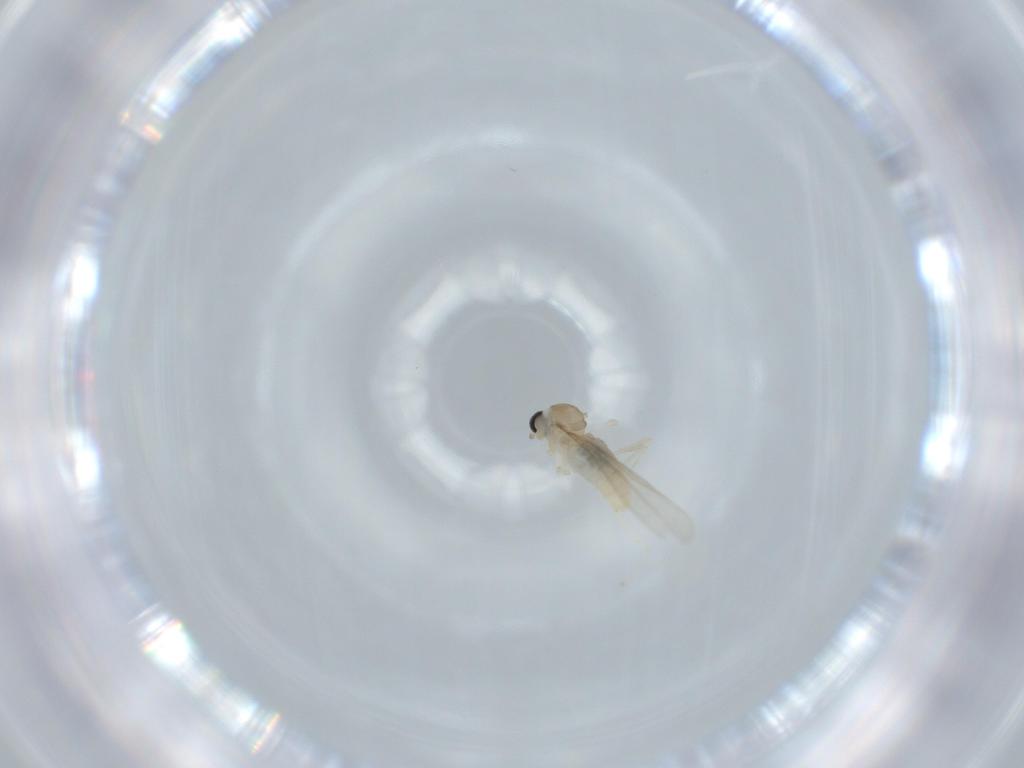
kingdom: Animalia
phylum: Arthropoda
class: Insecta
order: Diptera
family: Cecidomyiidae
